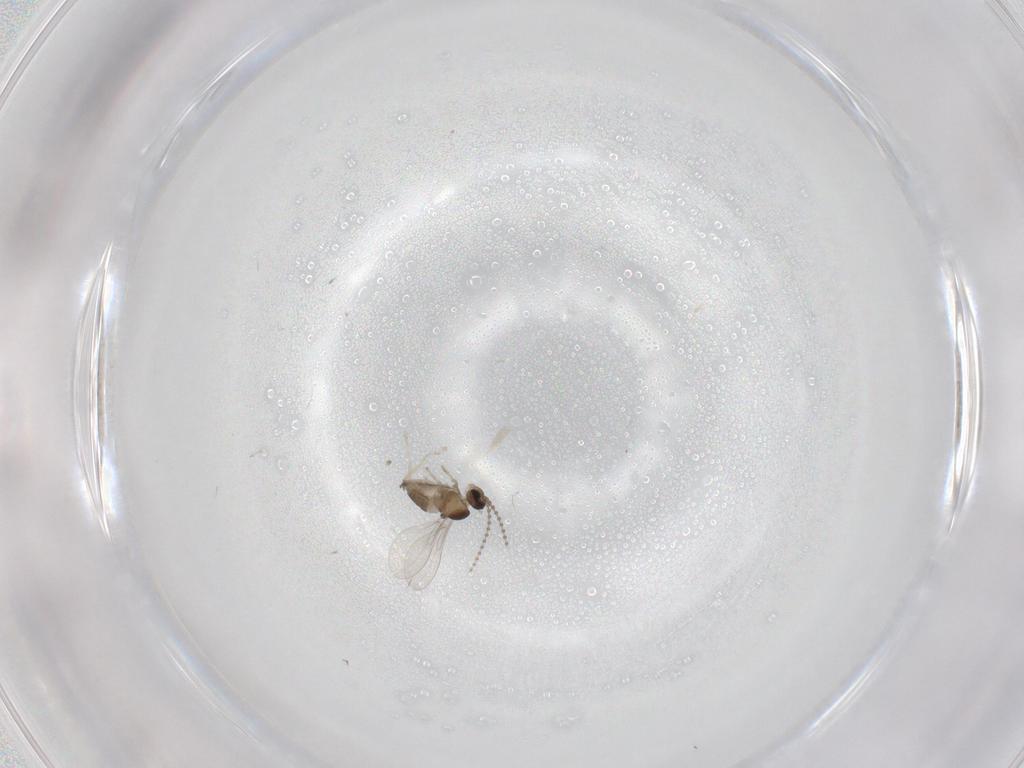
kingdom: Animalia
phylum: Arthropoda
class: Insecta
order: Diptera
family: Cecidomyiidae
